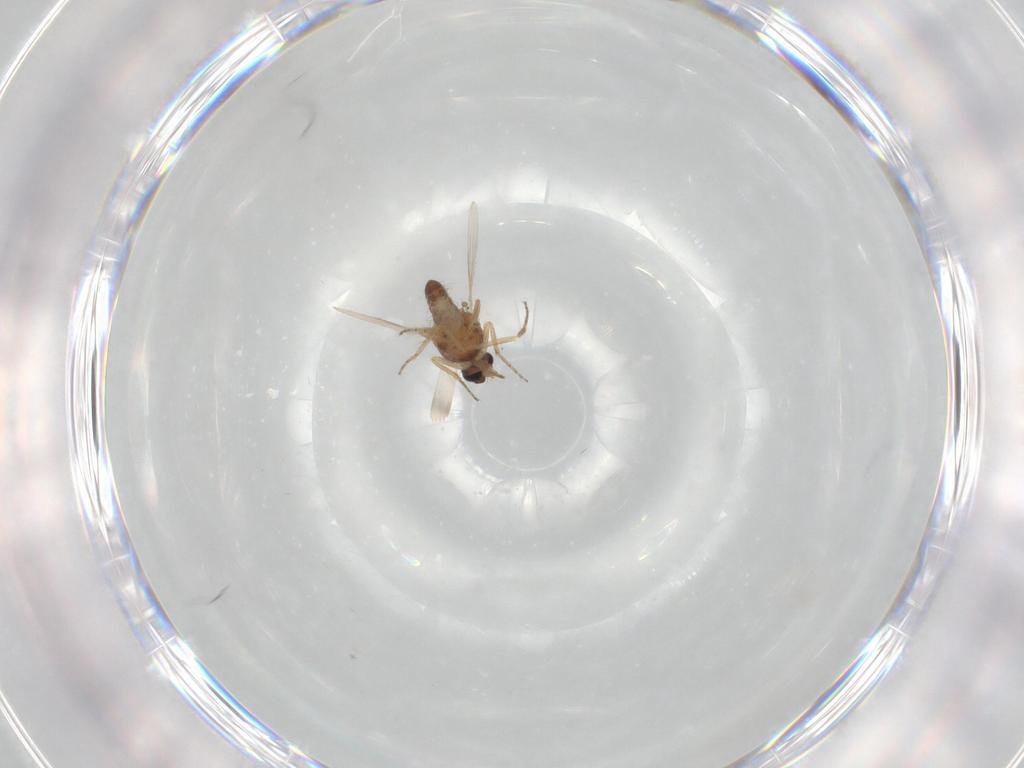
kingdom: Animalia
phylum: Arthropoda
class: Insecta
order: Diptera
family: Ceratopogonidae
